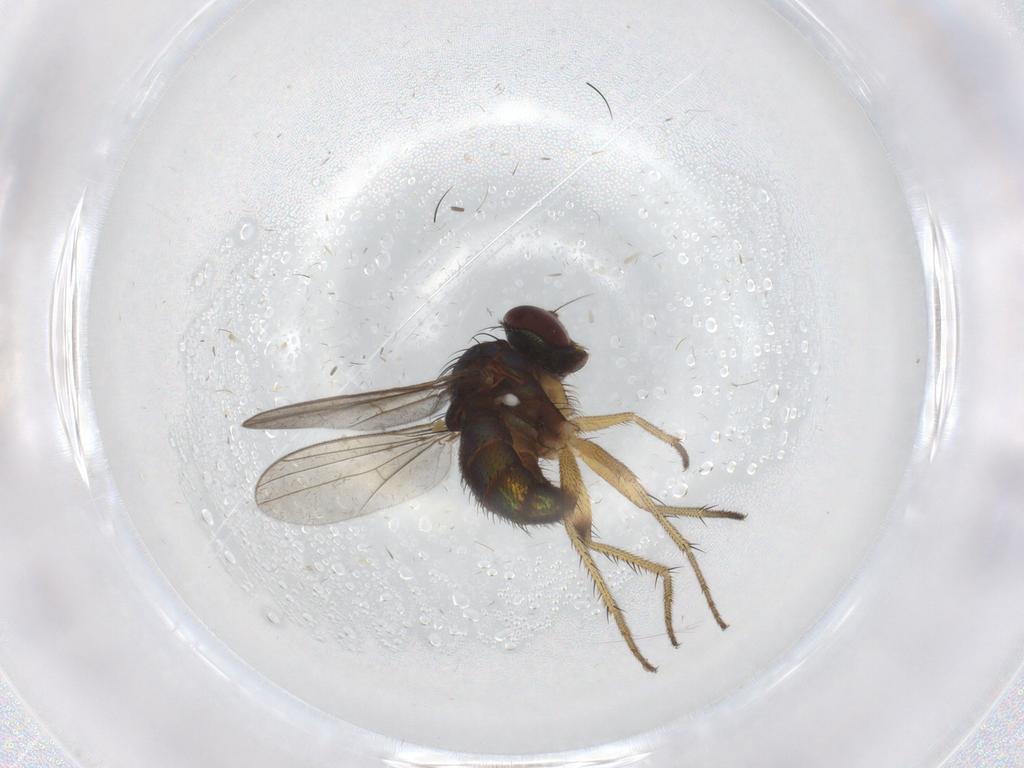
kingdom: Animalia
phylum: Arthropoda
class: Insecta
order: Diptera
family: Dolichopodidae
